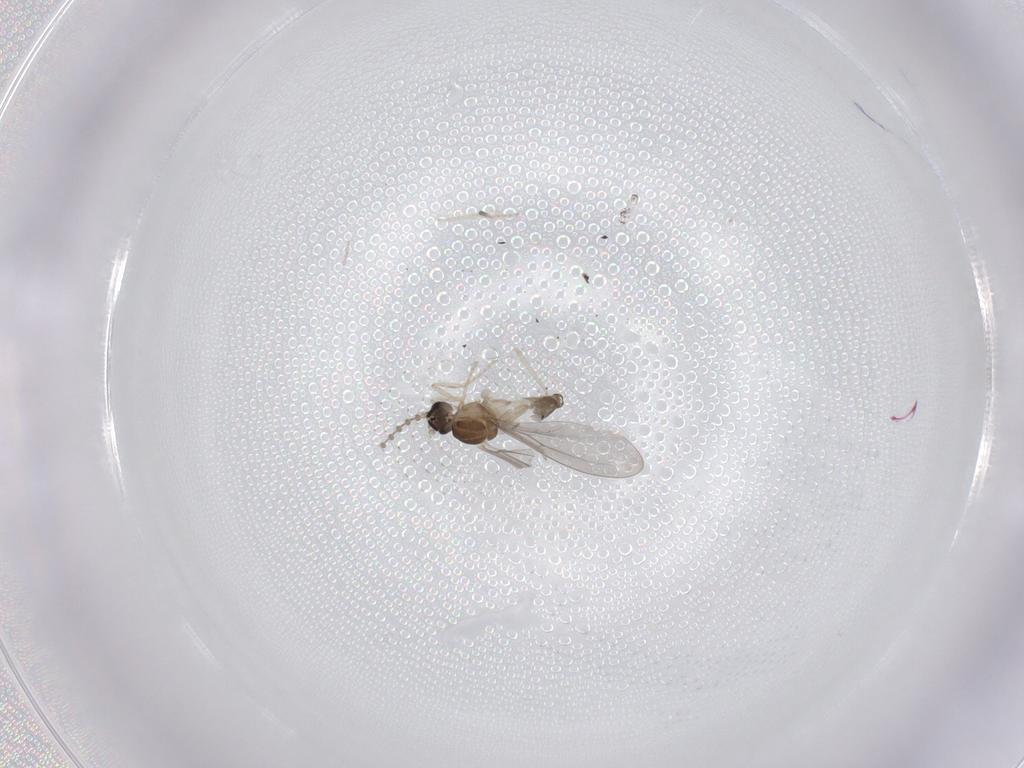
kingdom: Animalia
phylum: Arthropoda
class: Insecta
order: Diptera
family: Cecidomyiidae
